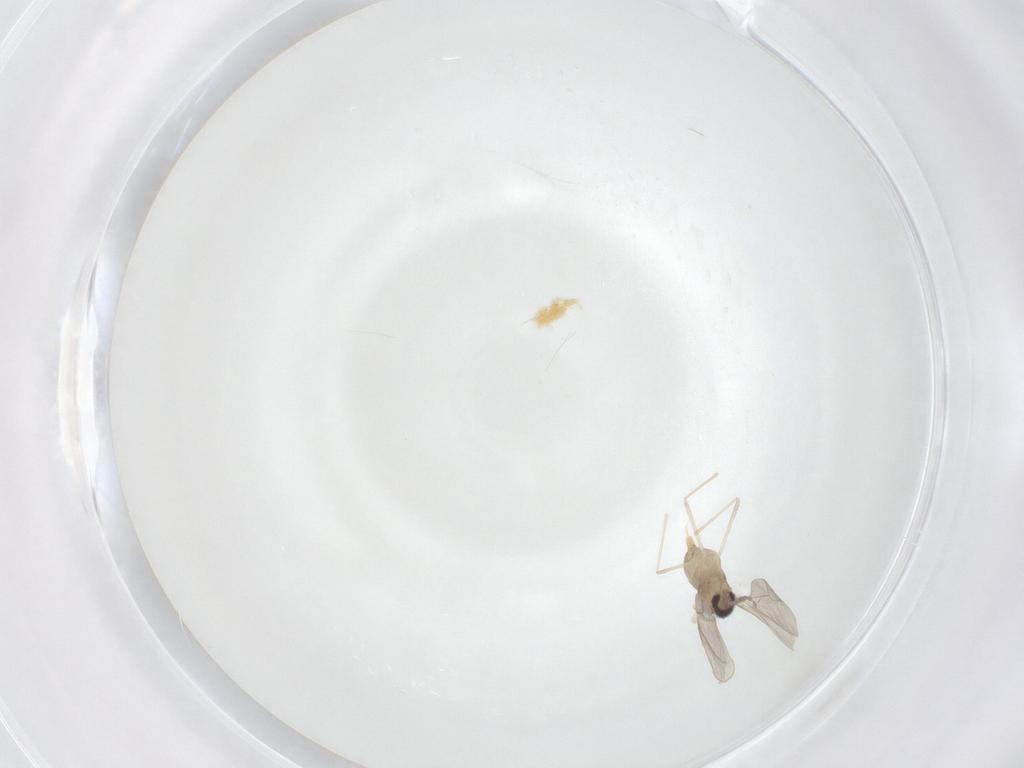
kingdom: Animalia
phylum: Arthropoda
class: Insecta
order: Diptera
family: Cecidomyiidae
